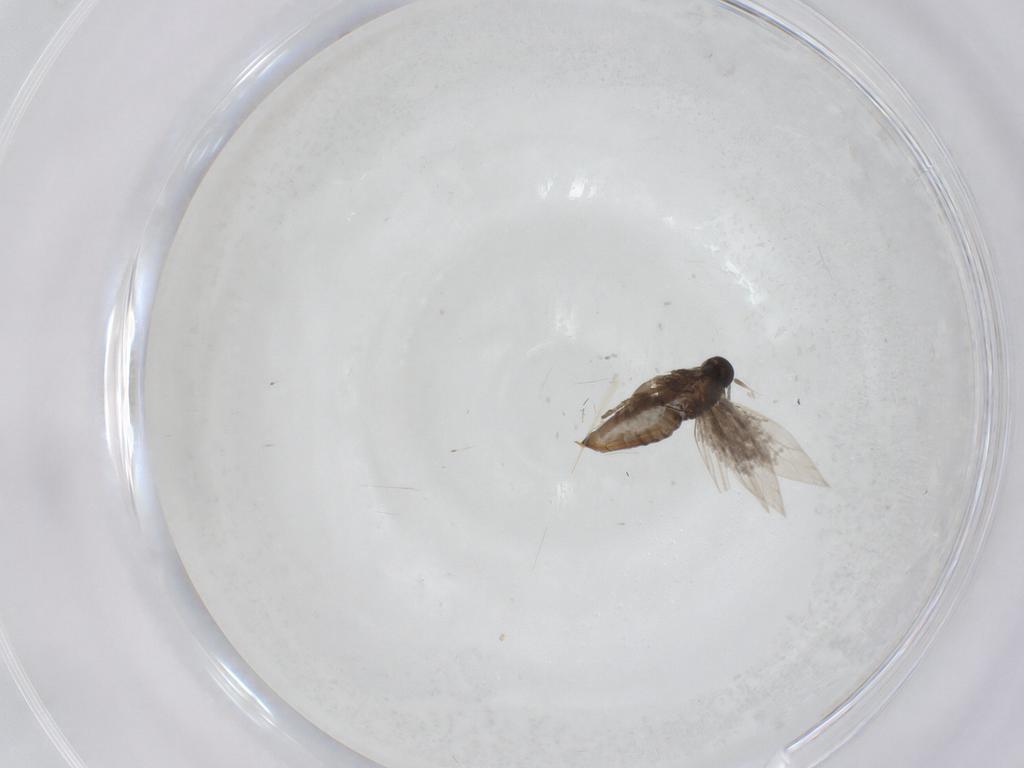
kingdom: Animalia
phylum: Arthropoda
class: Insecta
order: Lepidoptera
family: Heliozelidae
